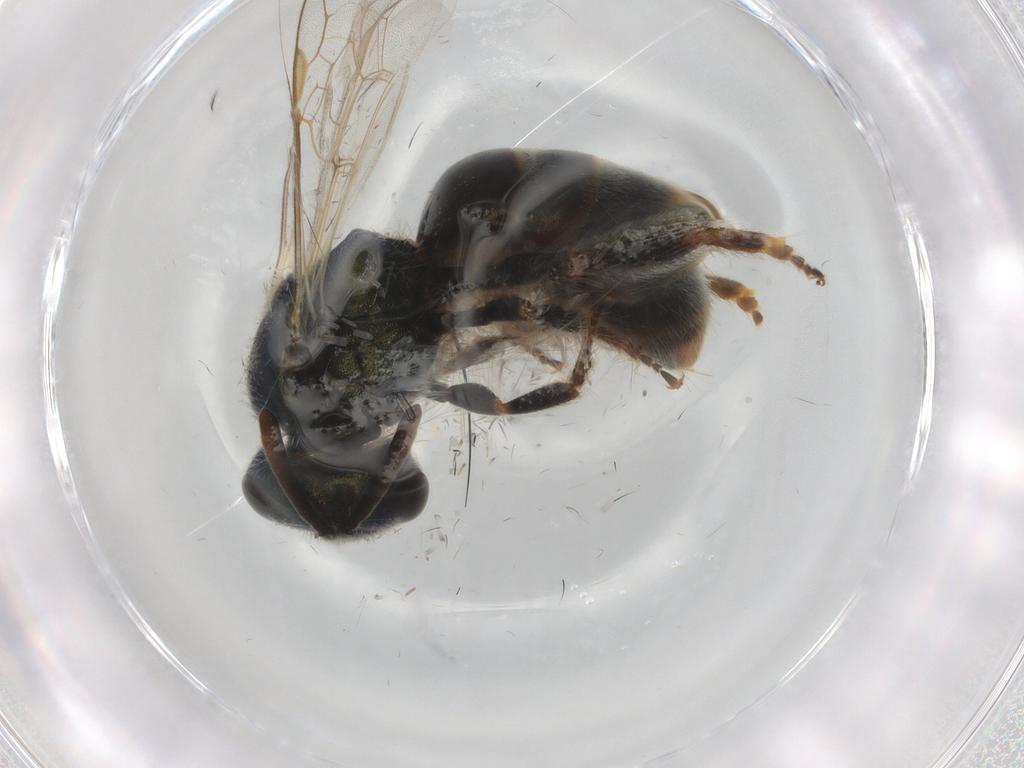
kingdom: Animalia
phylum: Arthropoda
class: Insecta
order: Hymenoptera
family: Halictidae
